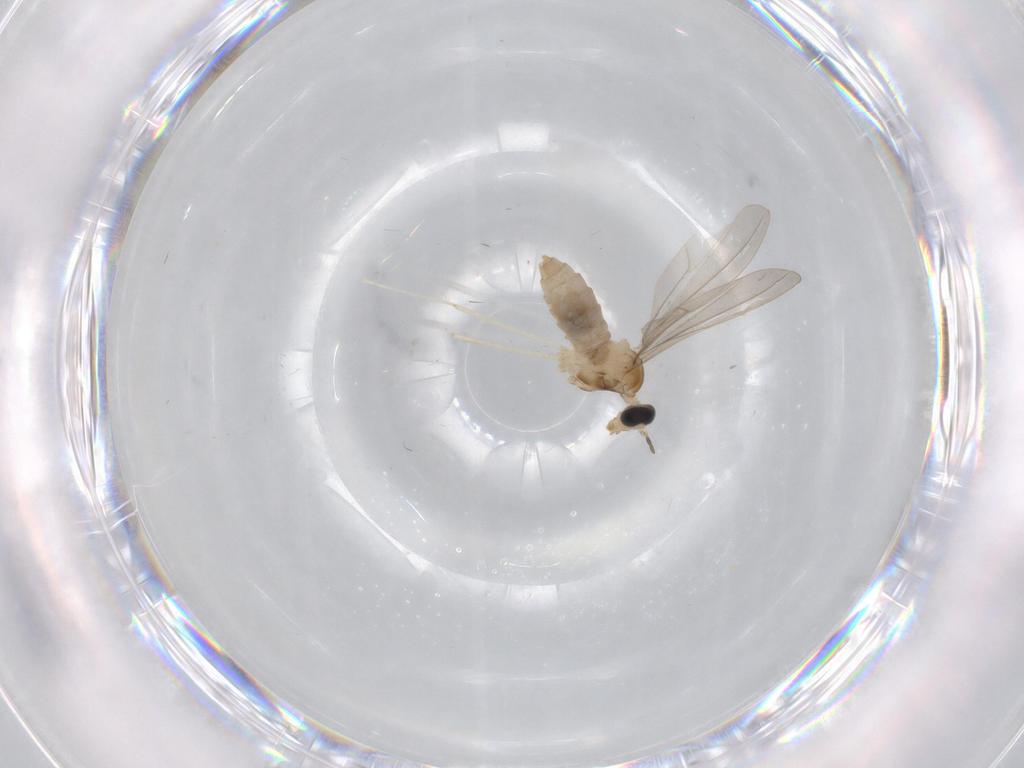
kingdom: Animalia
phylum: Arthropoda
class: Insecta
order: Diptera
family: Cecidomyiidae
